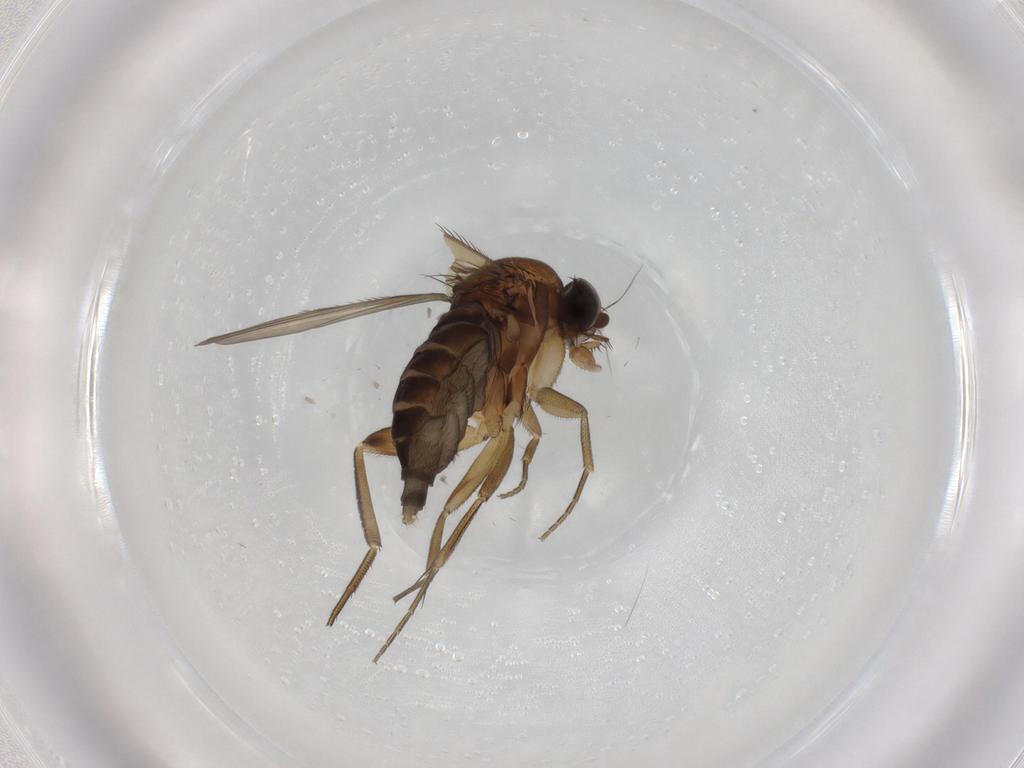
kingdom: Animalia
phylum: Arthropoda
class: Insecta
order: Diptera
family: Phoridae
